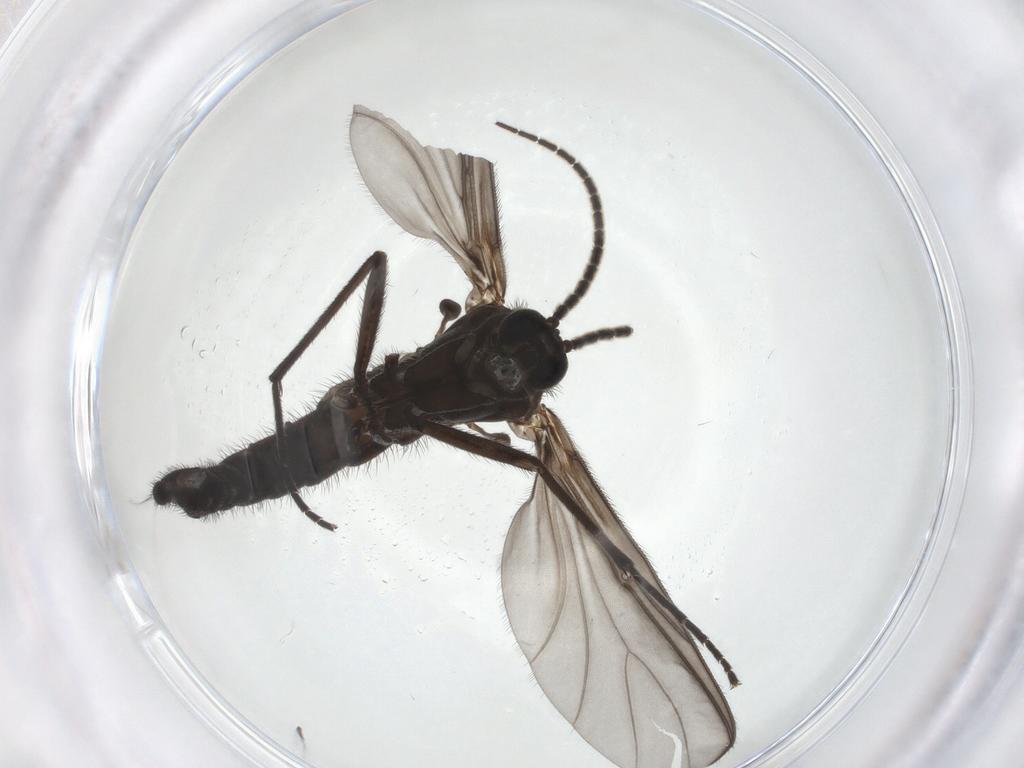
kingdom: Animalia
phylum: Arthropoda
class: Insecta
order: Diptera
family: Sciaridae
